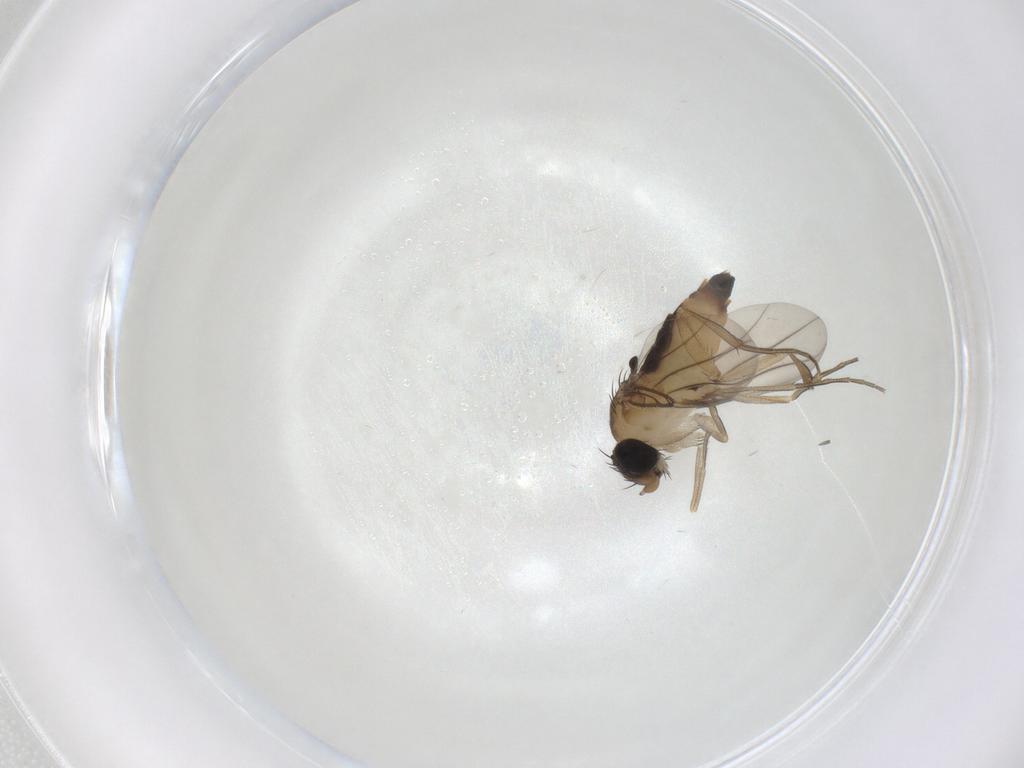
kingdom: Animalia
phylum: Arthropoda
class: Insecta
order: Diptera
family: Phoridae
